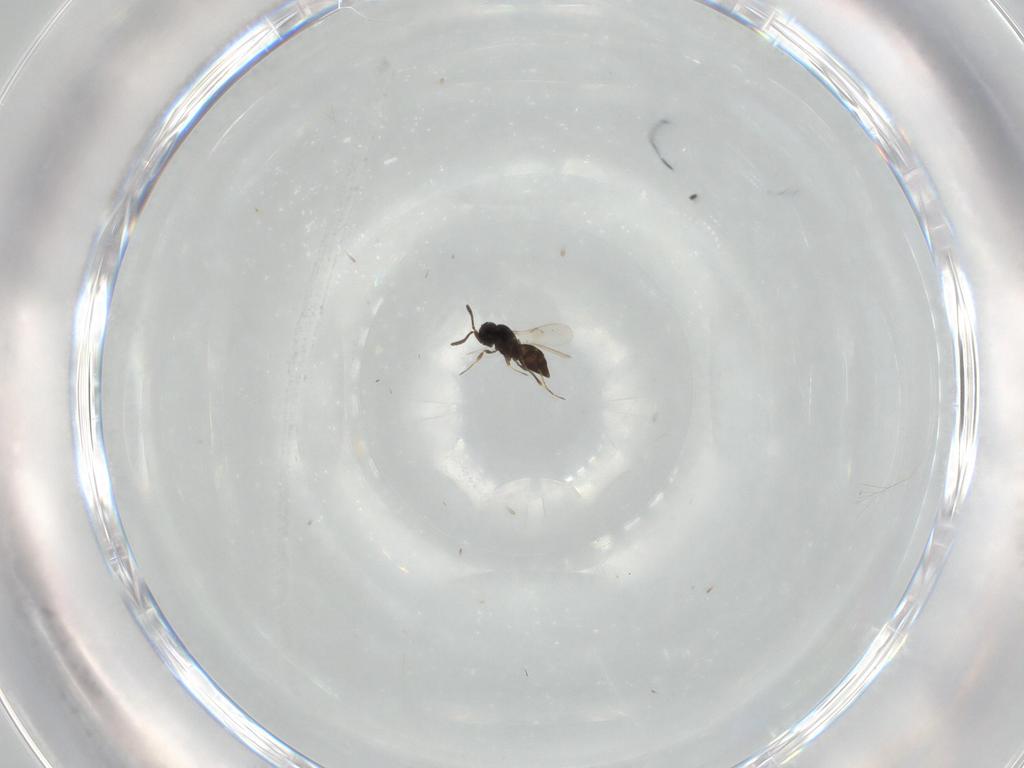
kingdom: Animalia
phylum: Arthropoda
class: Insecta
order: Hymenoptera
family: Scelionidae
